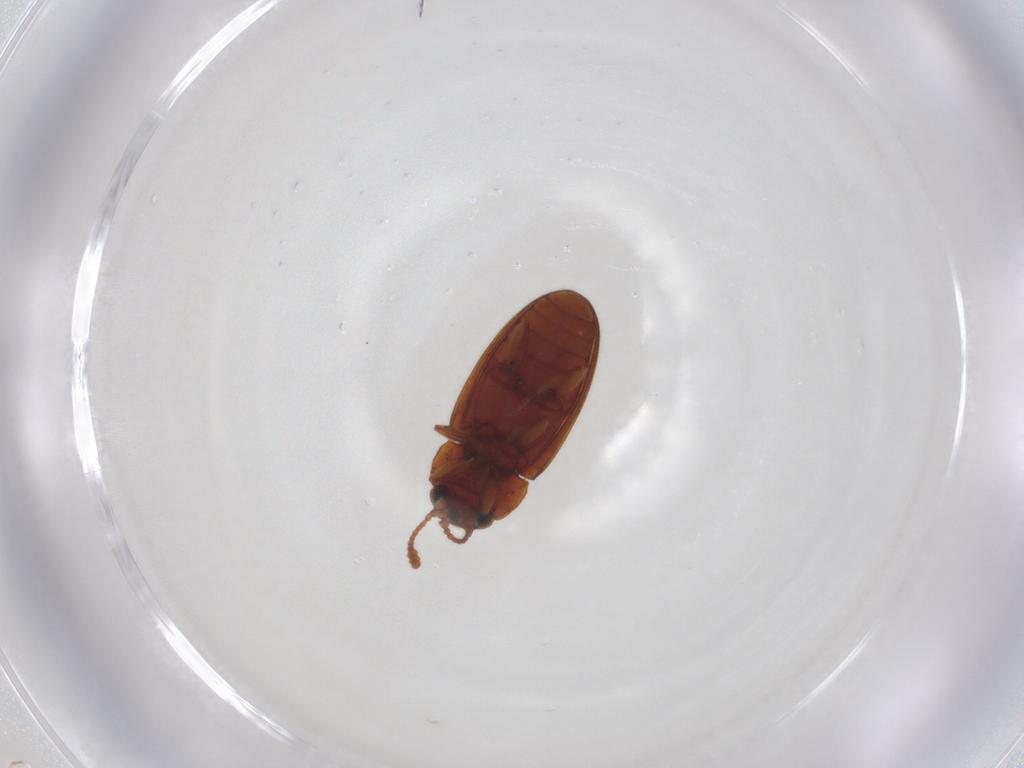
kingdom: Animalia
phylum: Arthropoda
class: Insecta
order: Coleoptera
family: Erotylidae
